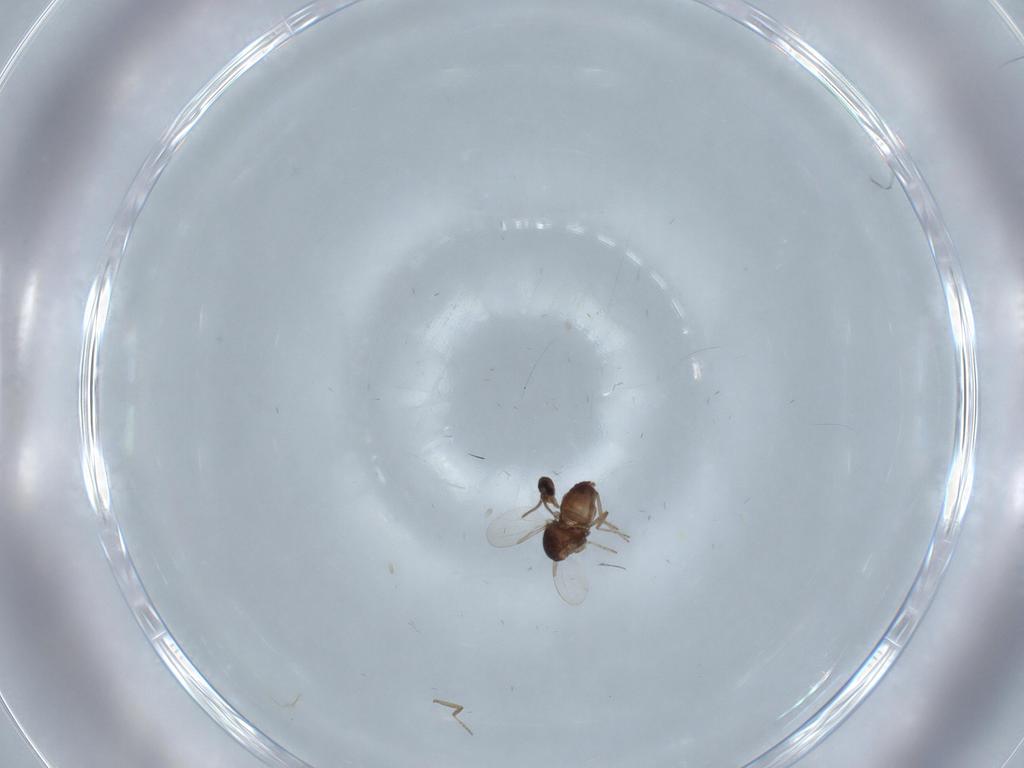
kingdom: Animalia
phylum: Arthropoda
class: Insecta
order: Diptera
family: Ceratopogonidae
